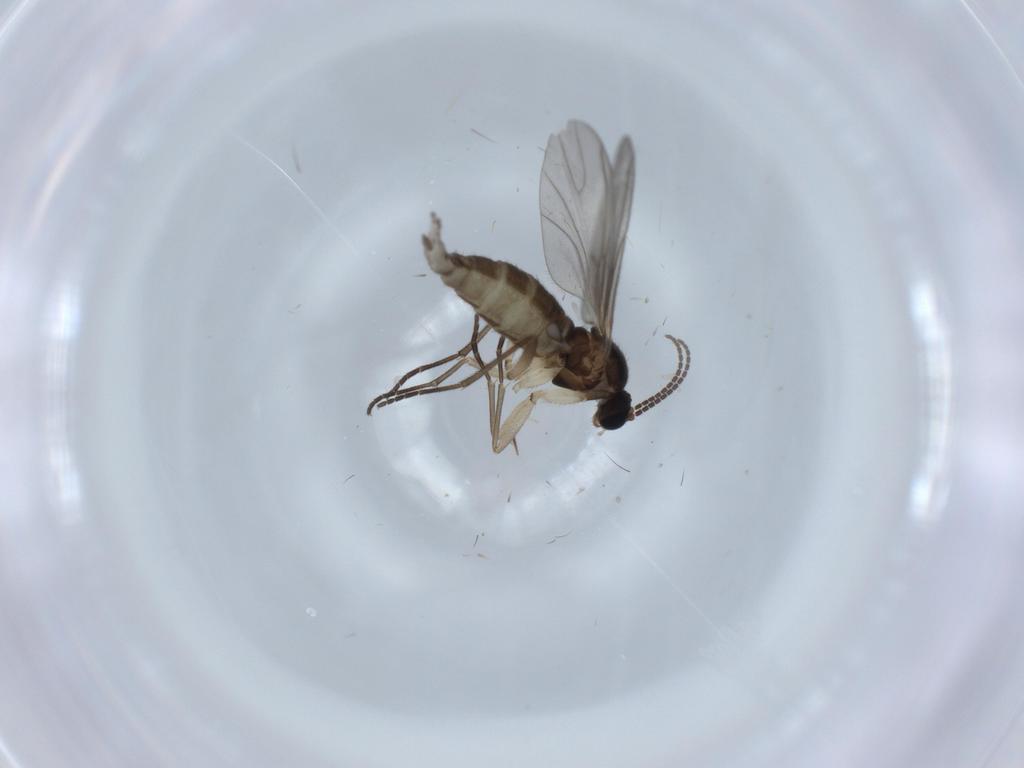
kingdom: Animalia
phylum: Arthropoda
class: Insecta
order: Diptera
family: Sciaridae
